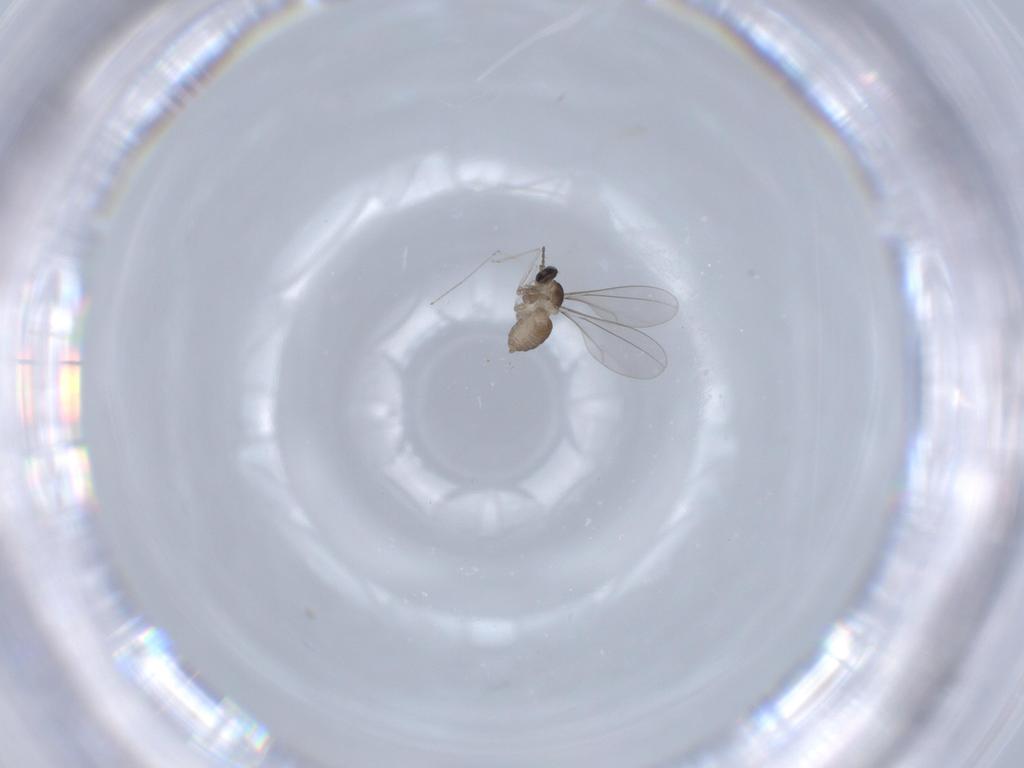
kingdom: Animalia
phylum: Arthropoda
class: Insecta
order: Diptera
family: Cecidomyiidae
